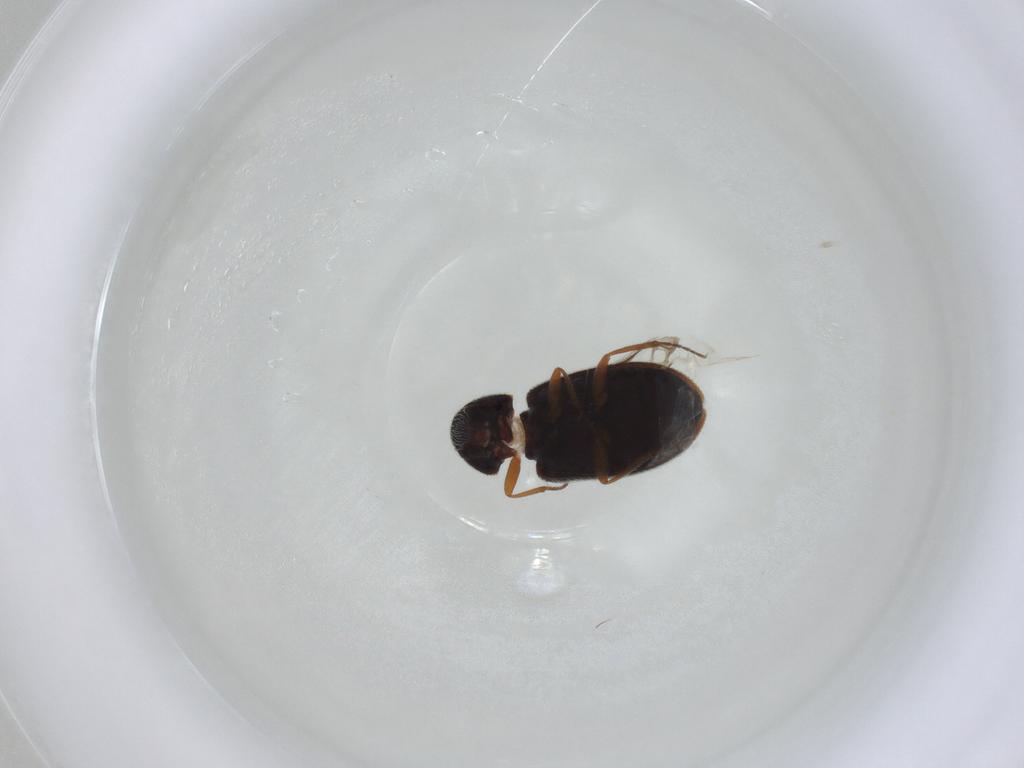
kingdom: Animalia
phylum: Arthropoda
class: Insecta
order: Coleoptera
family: Rhadalidae
